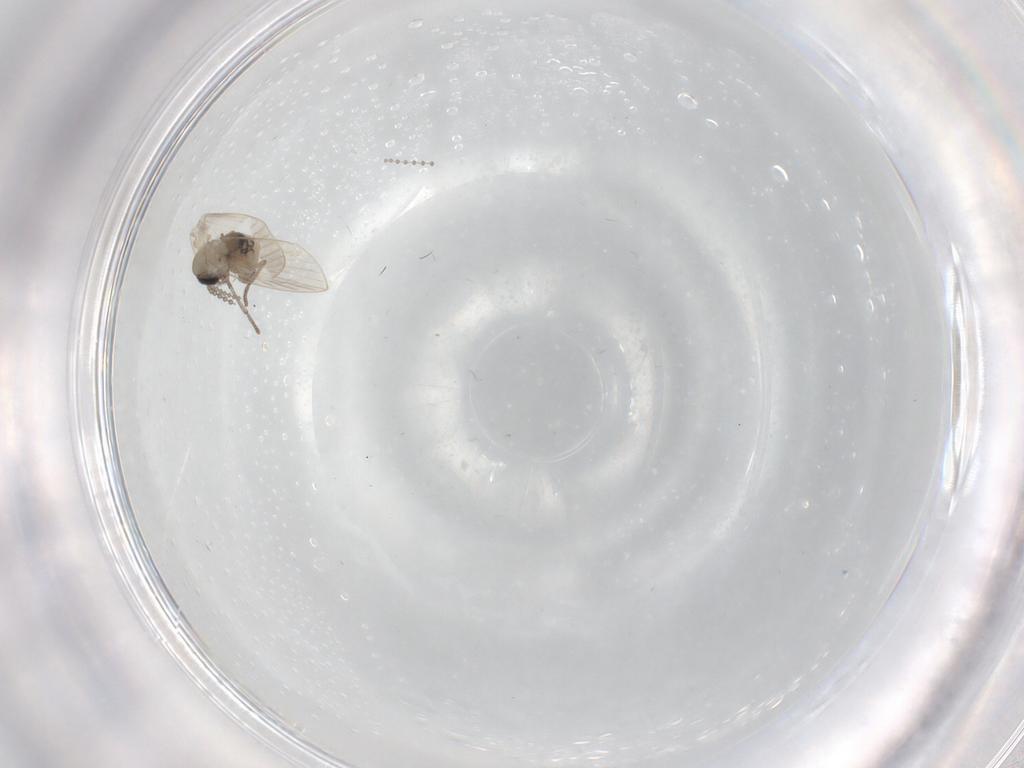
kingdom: Animalia
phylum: Arthropoda
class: Insecta
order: Diptera
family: Psychodidae
